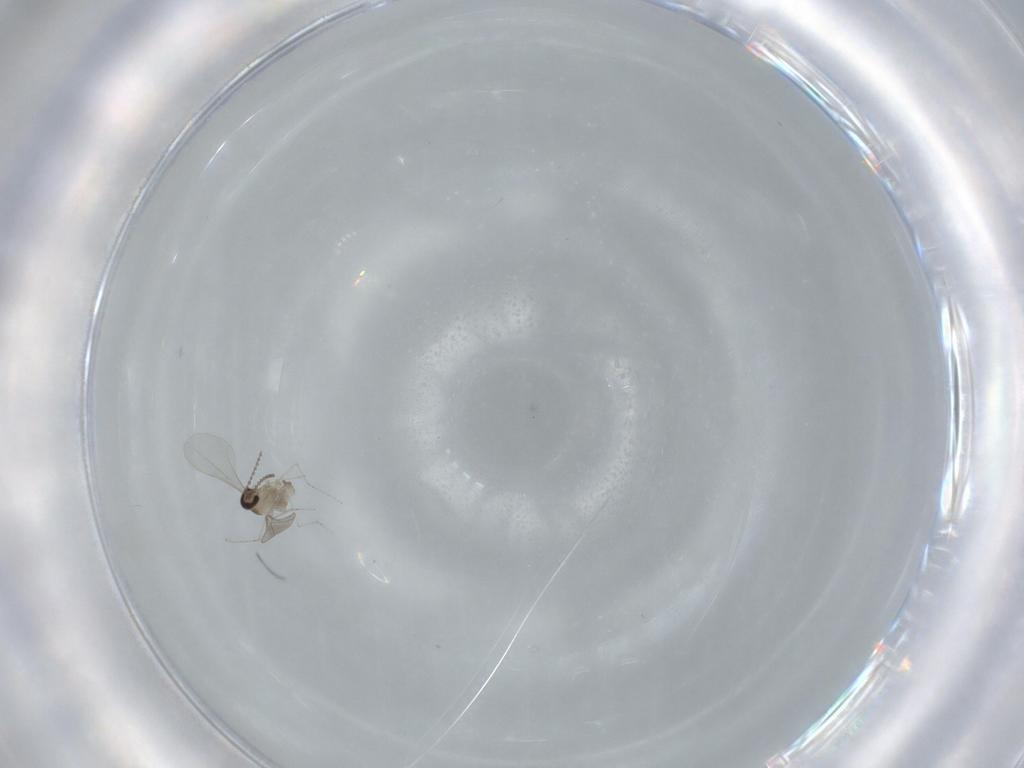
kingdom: Animalia
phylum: Arthropoda
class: Insecta
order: Diptera
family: Cecidomyiidae
